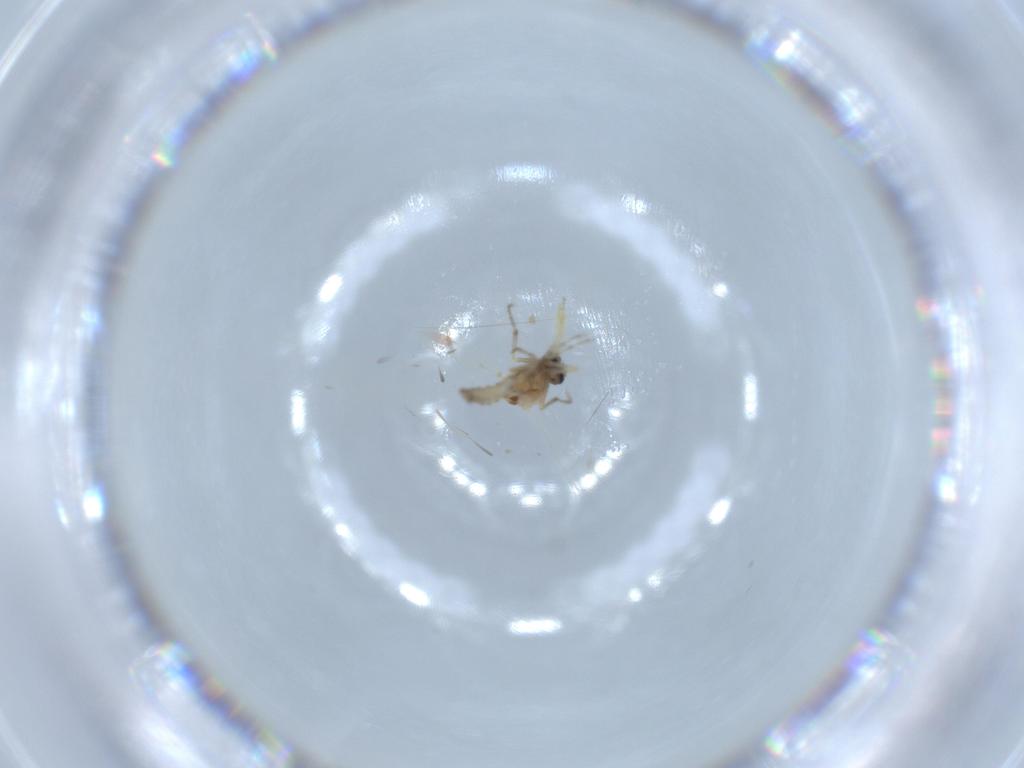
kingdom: Animalia
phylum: Arthropoda
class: Insecta
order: Diptera
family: Ceratopogonidae
